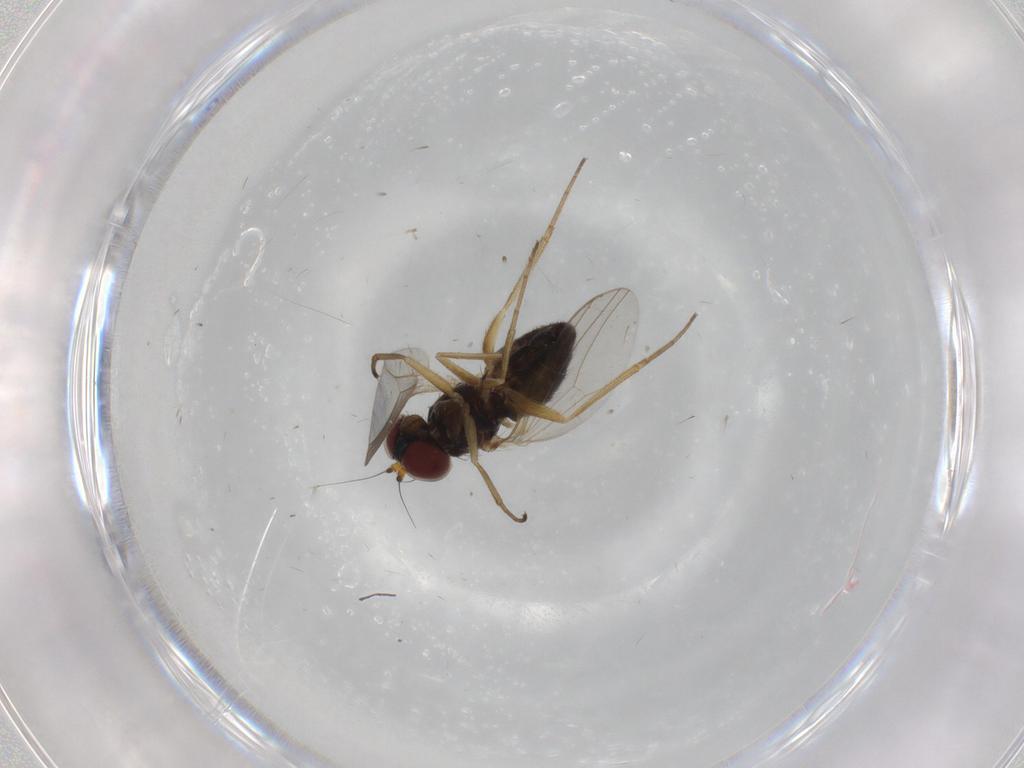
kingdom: Animalia
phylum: Arthropoda
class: Insecta
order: Diptera
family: Dolichopodidae
